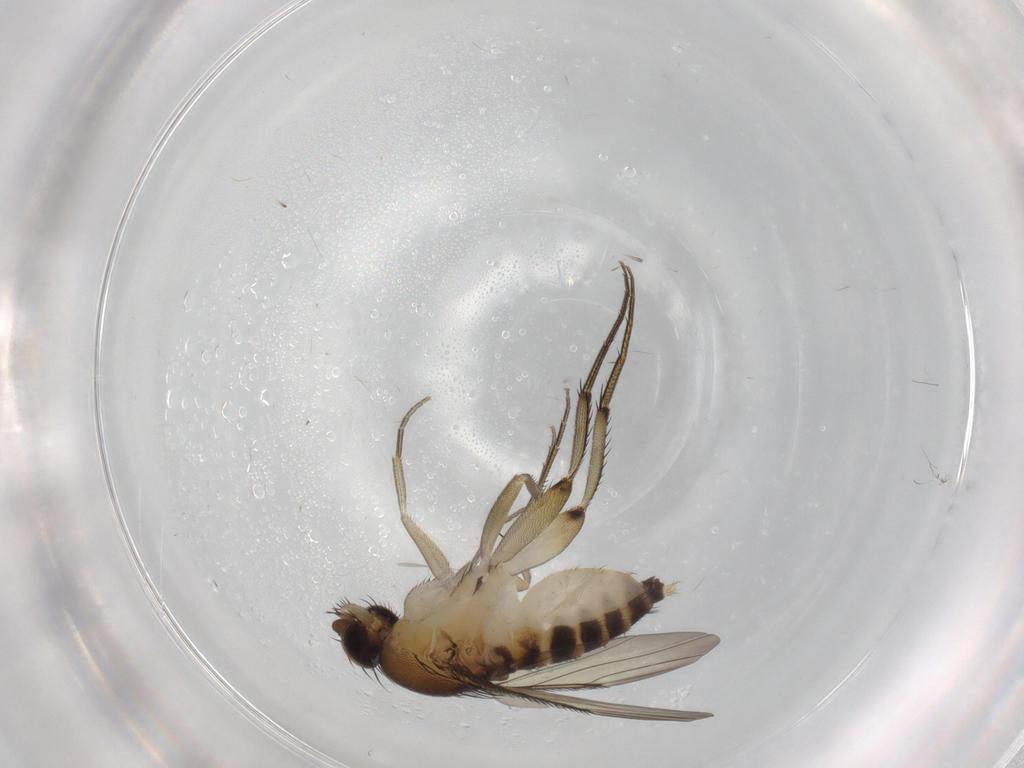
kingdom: Animalia
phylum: Arthropoda
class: Insecta
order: Diptera
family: Phoridae
